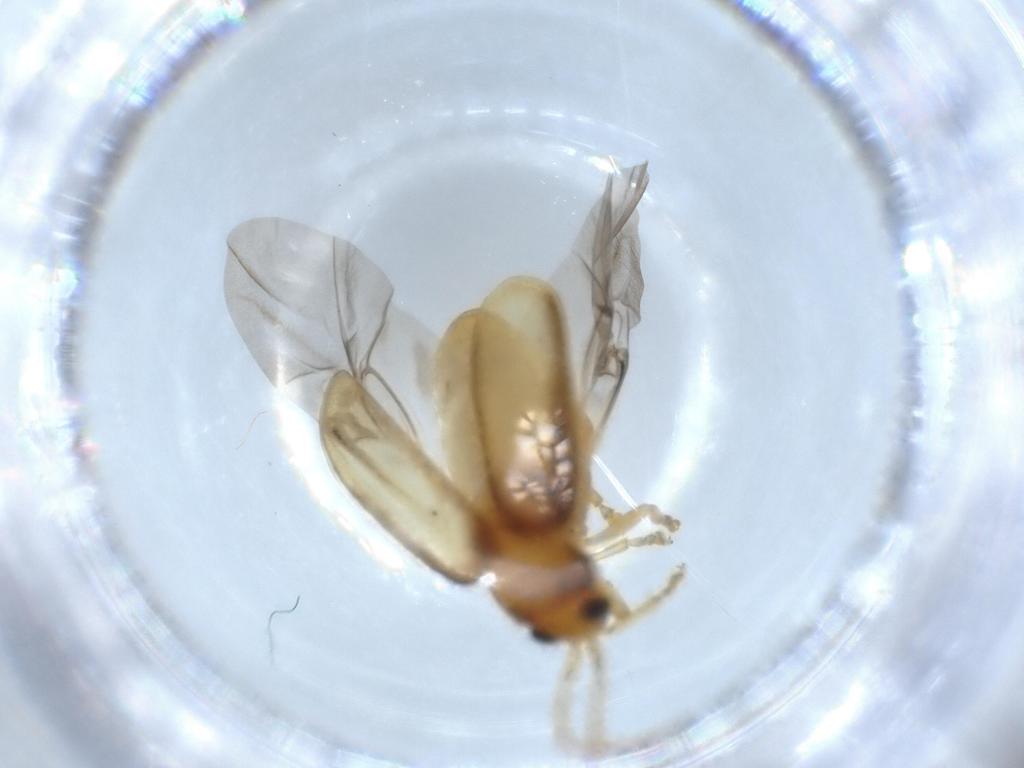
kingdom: Animalia
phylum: Arthropoda
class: Insecta
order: Coleoptera
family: Chrysomelidae
